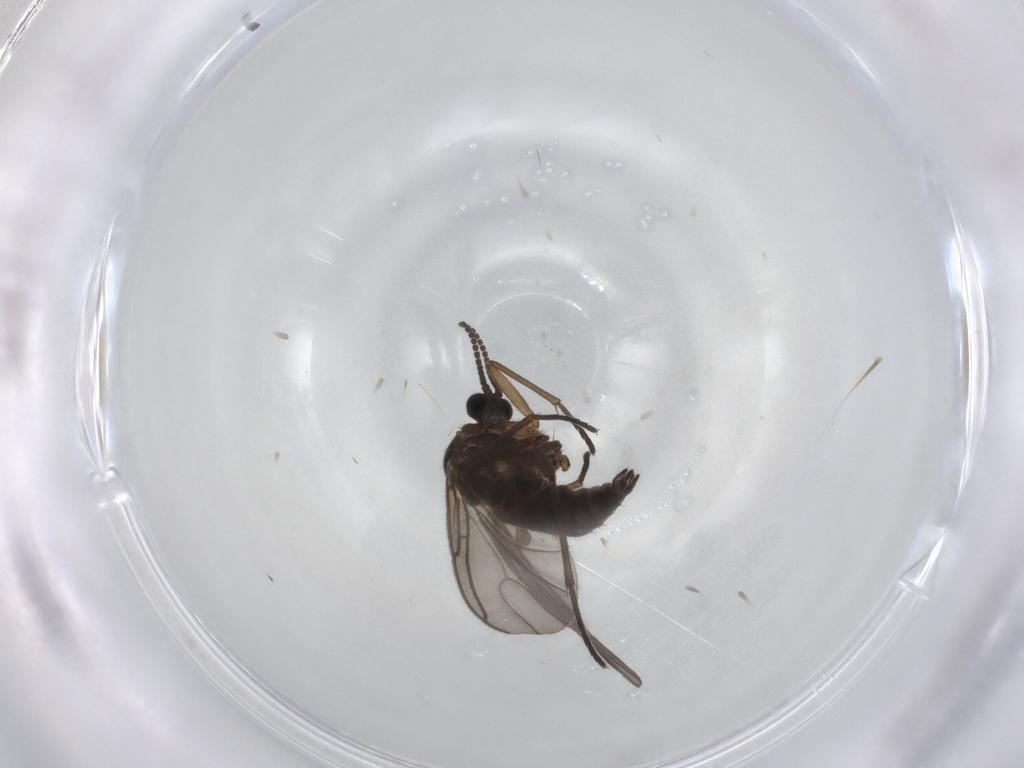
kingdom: Animalia
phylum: Arthropoda
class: Insecta
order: Diptera
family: Sciaridae
